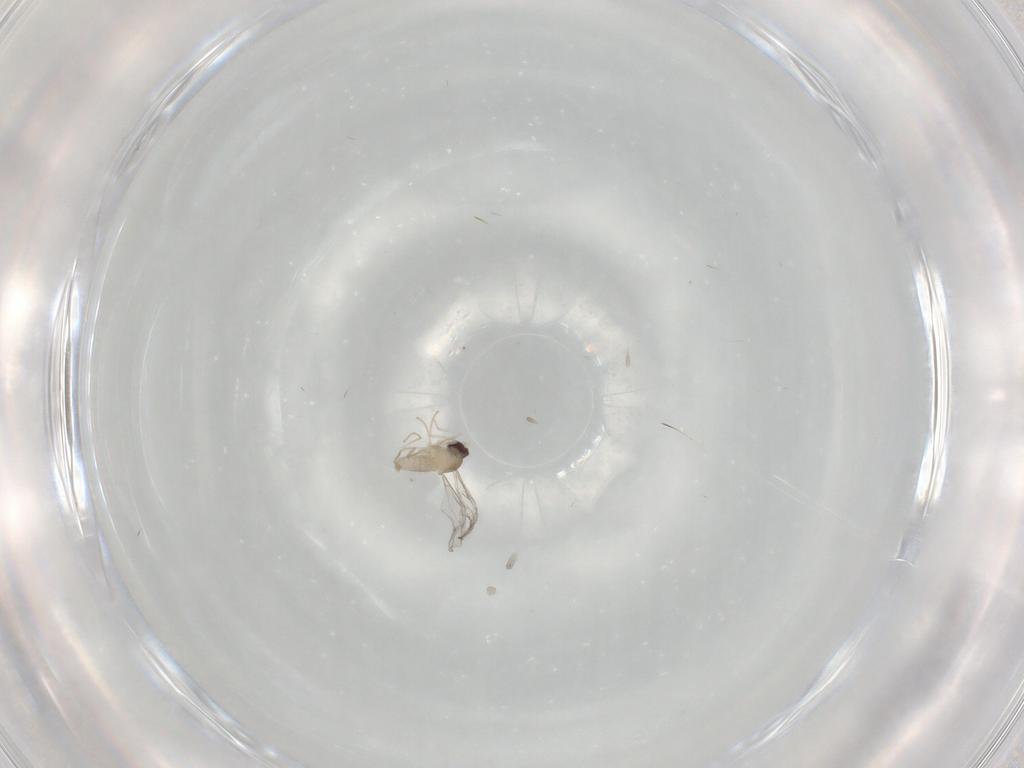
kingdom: Animalia
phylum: Arthropoda
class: Insecta
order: Diptera
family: Cecidomyiidae
